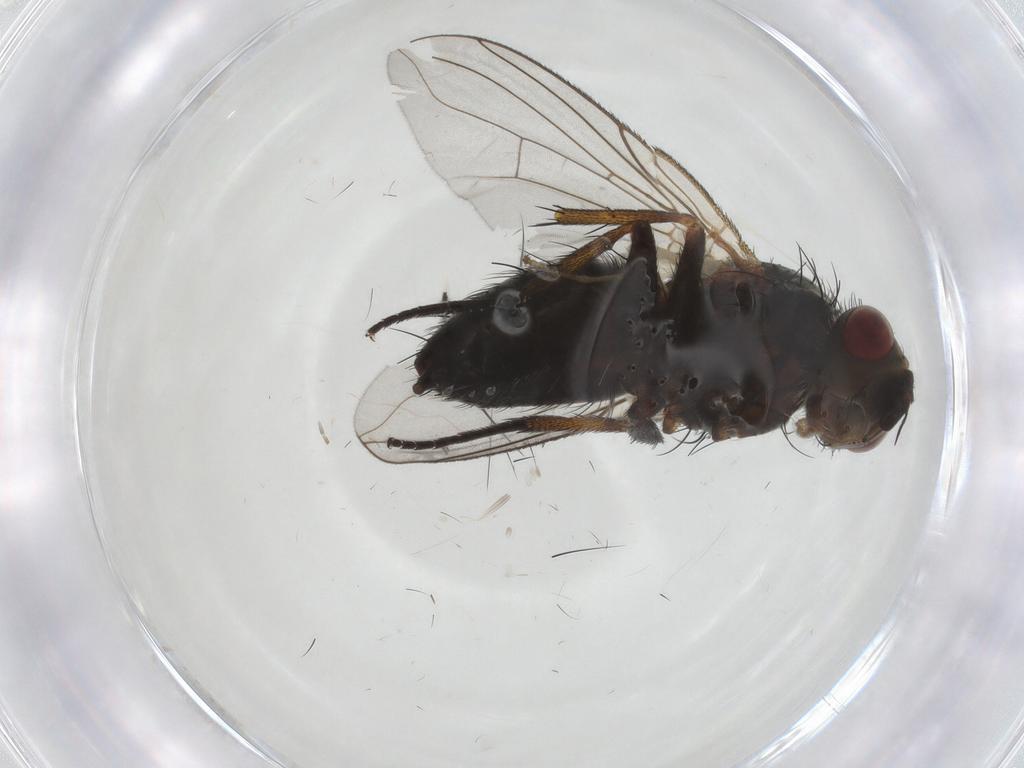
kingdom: Animalia
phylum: Arthropoda
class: Insecta
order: Diptera
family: Tachinidae
